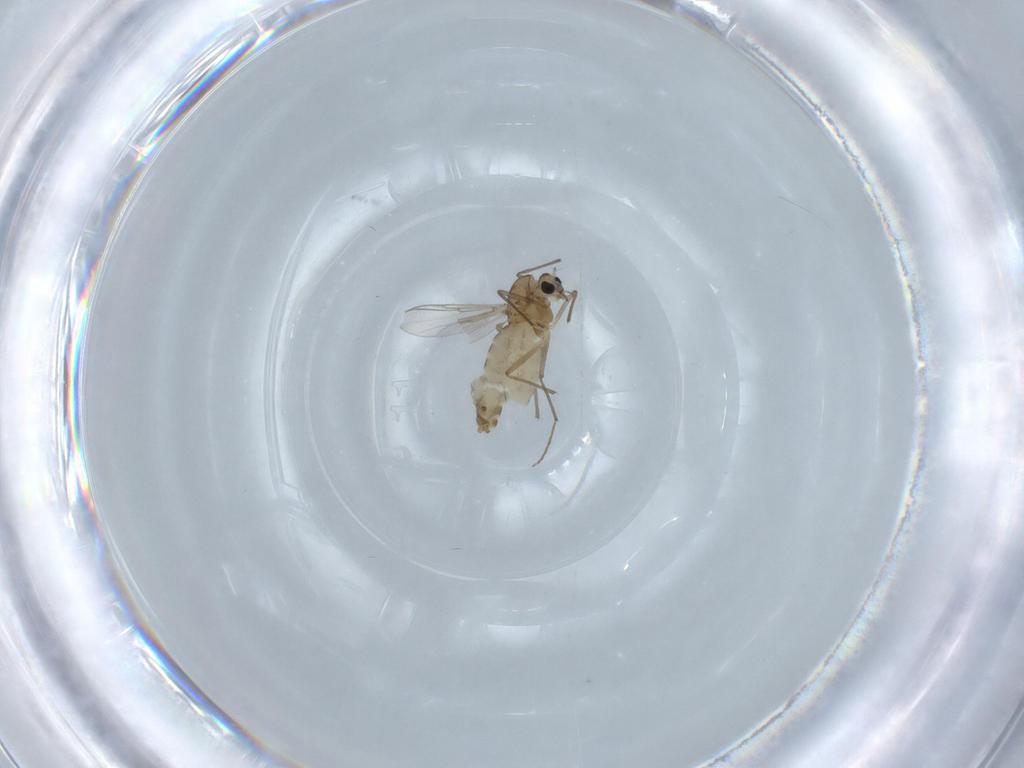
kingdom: Animalia
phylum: Arthropoda
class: Insecta
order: Diptera
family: Chironomidae
